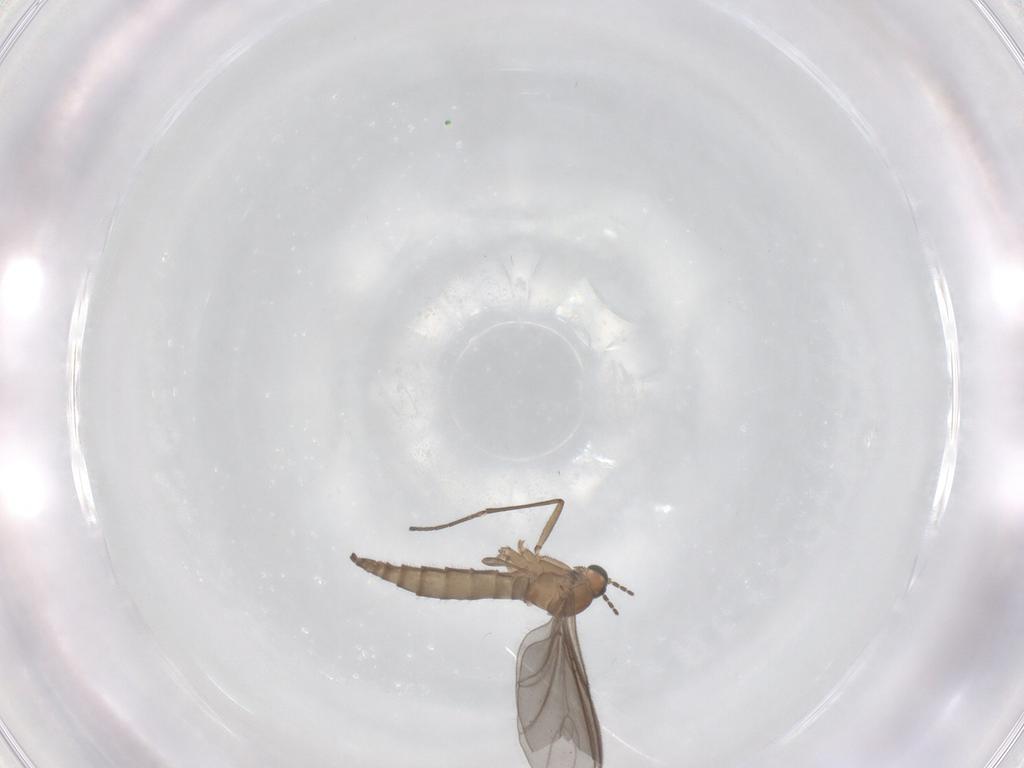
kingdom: Animalia
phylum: Arthropoda
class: Insecta
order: Diptera
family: Sciaridae
